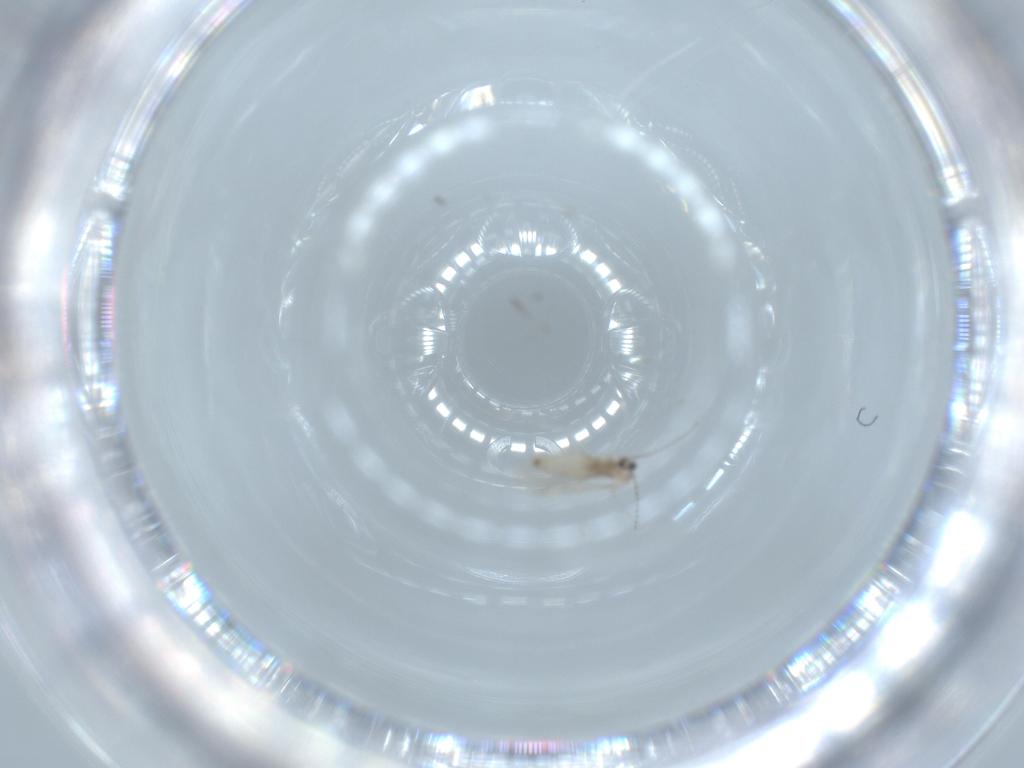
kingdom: Animalia
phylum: Arthropoda
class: Insecta
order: Diptera
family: Cecidomyiidae
